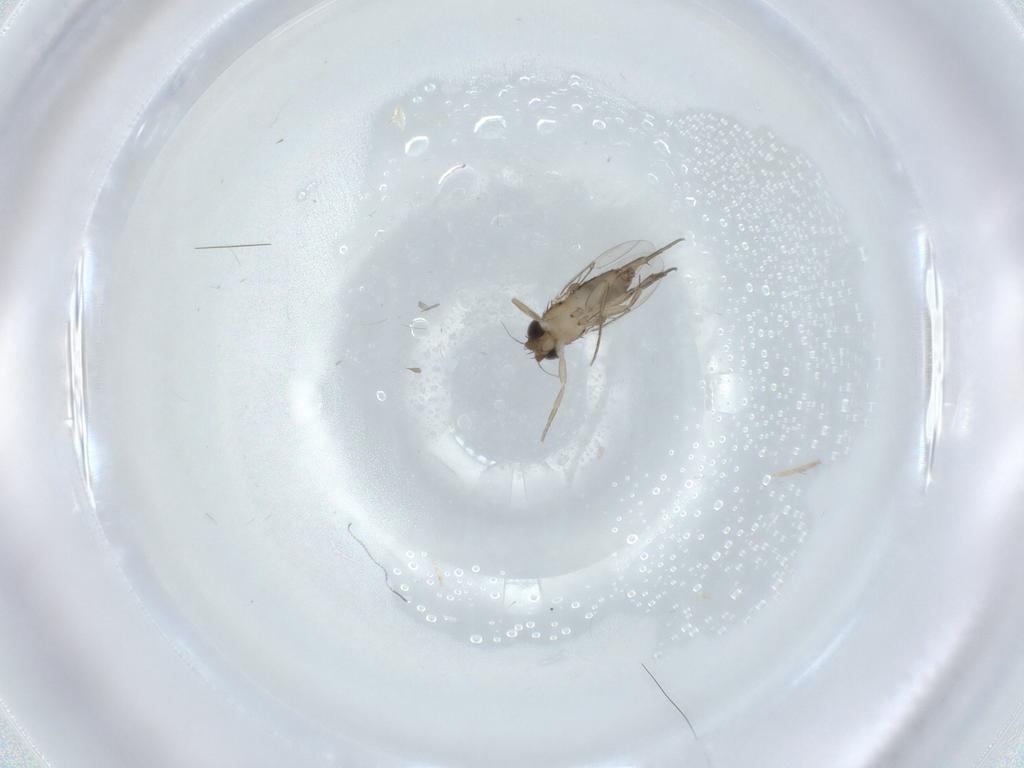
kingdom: Animalia
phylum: Arthropoda
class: Insecta
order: Diptera
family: Phoridae
